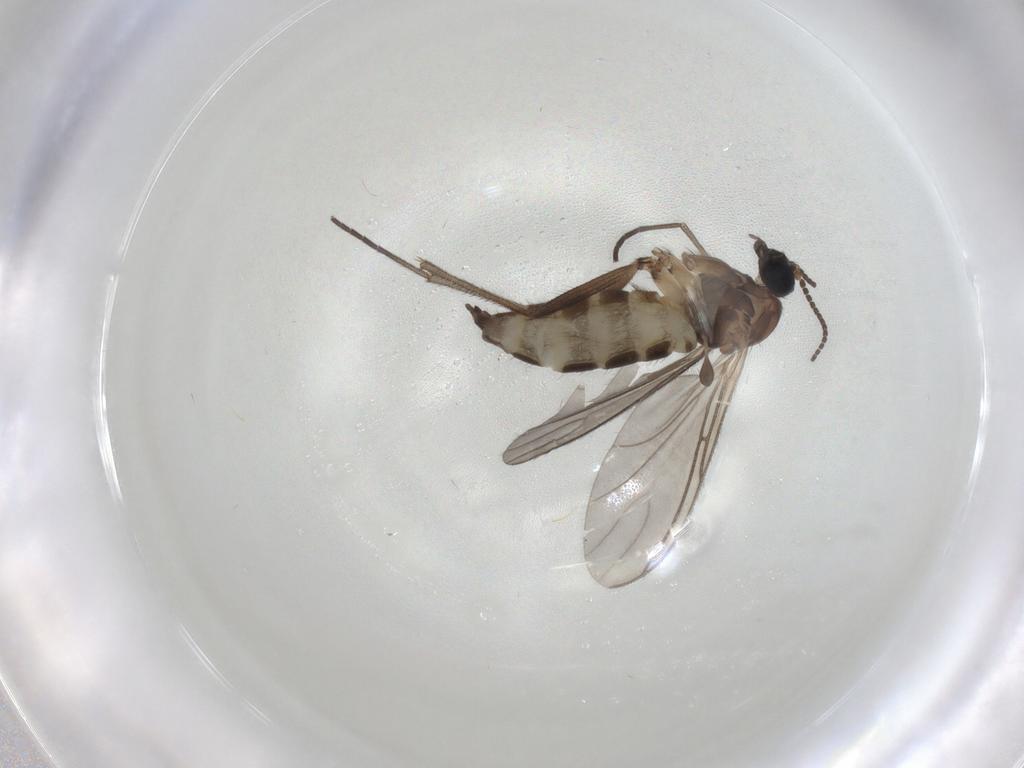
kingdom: Animalia
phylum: Arthropoda
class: Insecta
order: Diptera
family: Sciaridae
